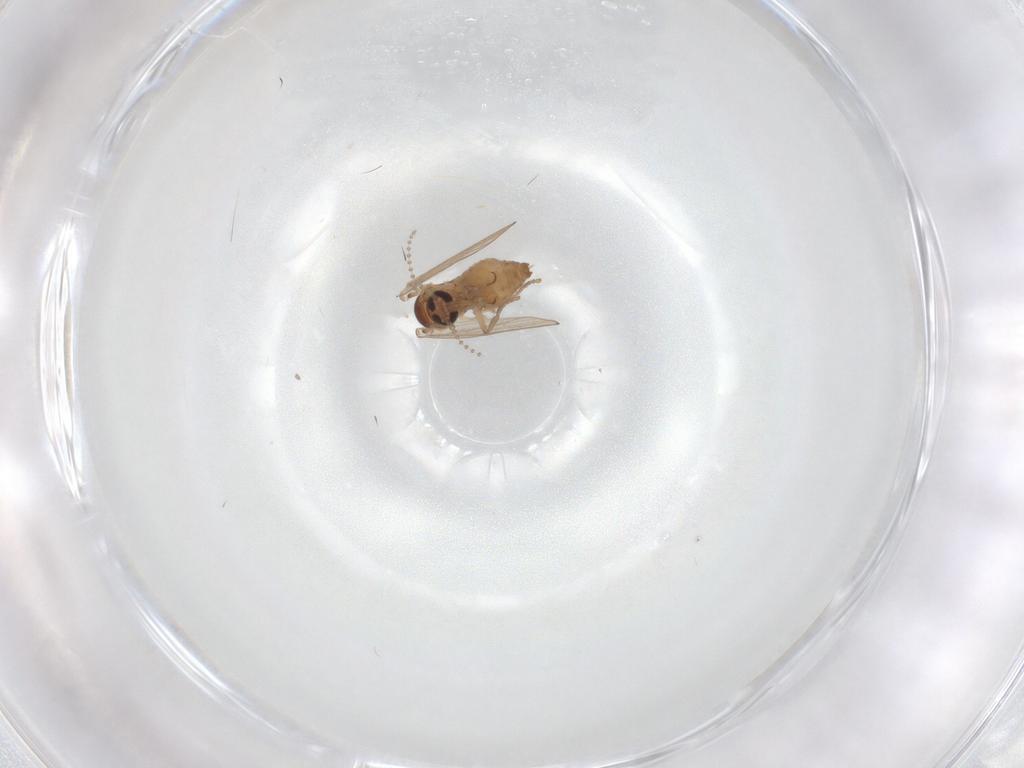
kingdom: Animalia
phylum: Arthropoda
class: Insecta
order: Diptera
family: Psychodidae
